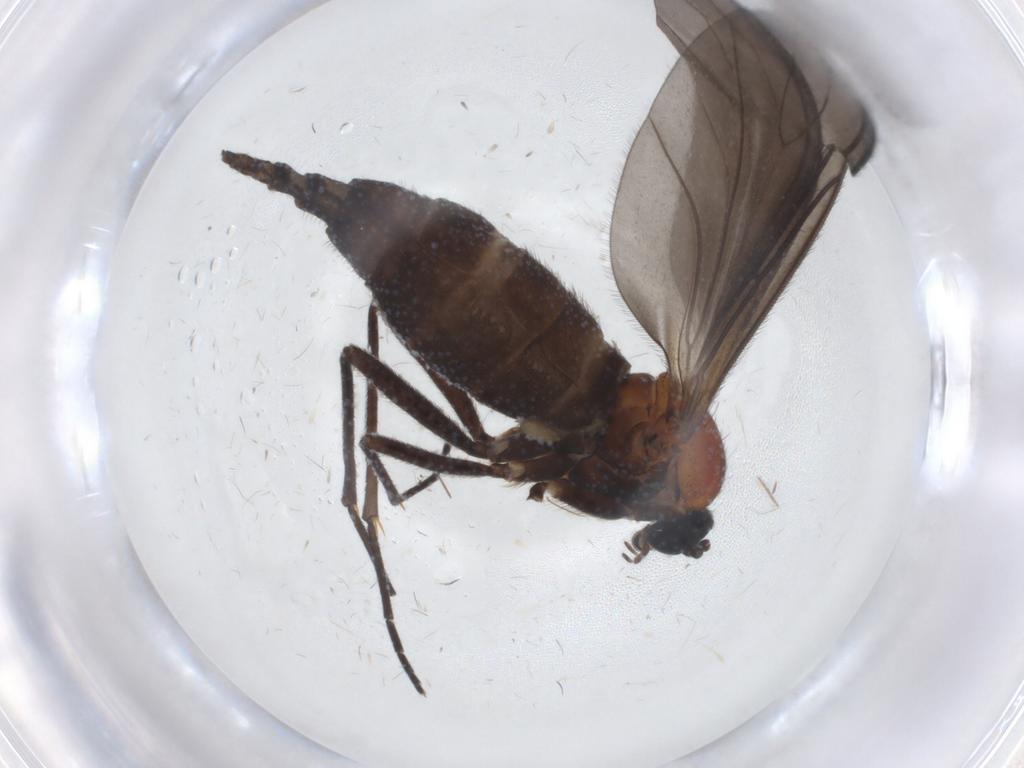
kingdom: Animalia
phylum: Arthropoda
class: Insecta
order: Diptera
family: Sciaridae
